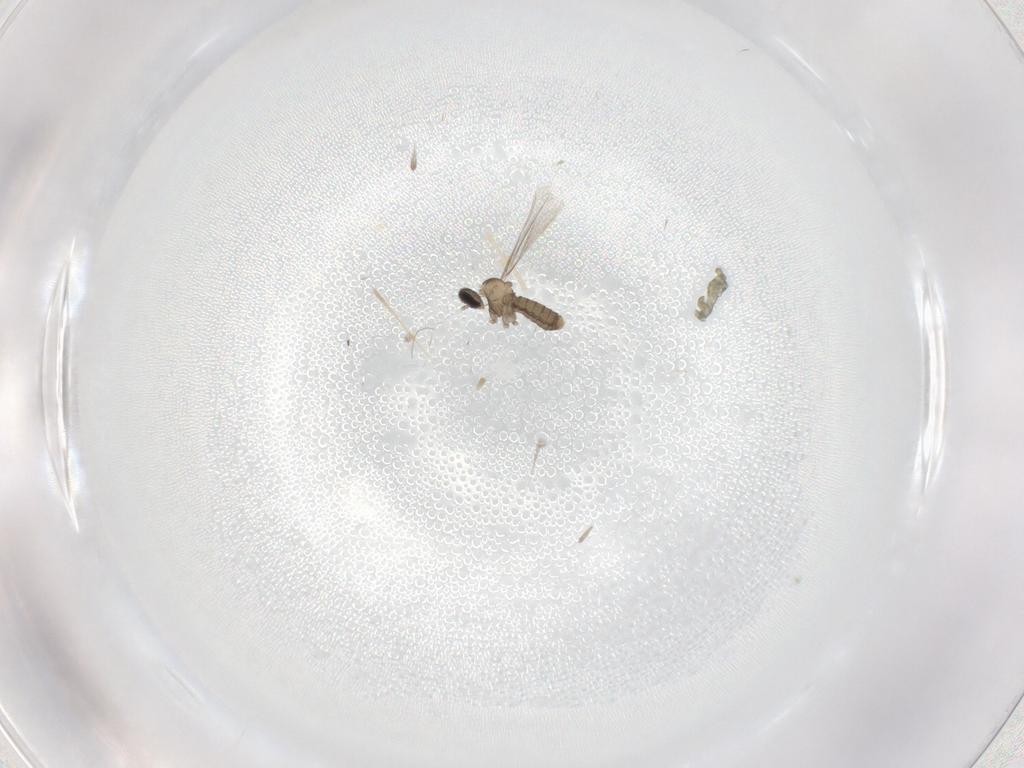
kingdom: Animalia
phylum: Arthropoda
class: Insecta
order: Diptera
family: Cecidomyiidae
